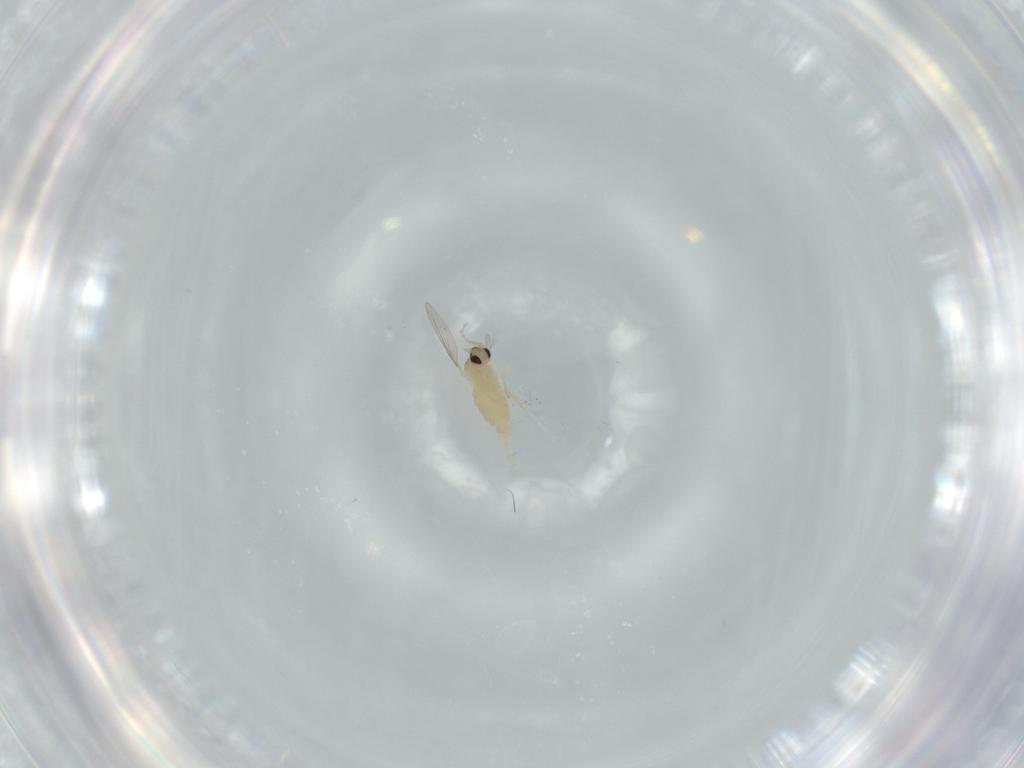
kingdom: Animalia
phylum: Arthropoda
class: Insecta
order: Diptera
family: Cecidomyiidae
